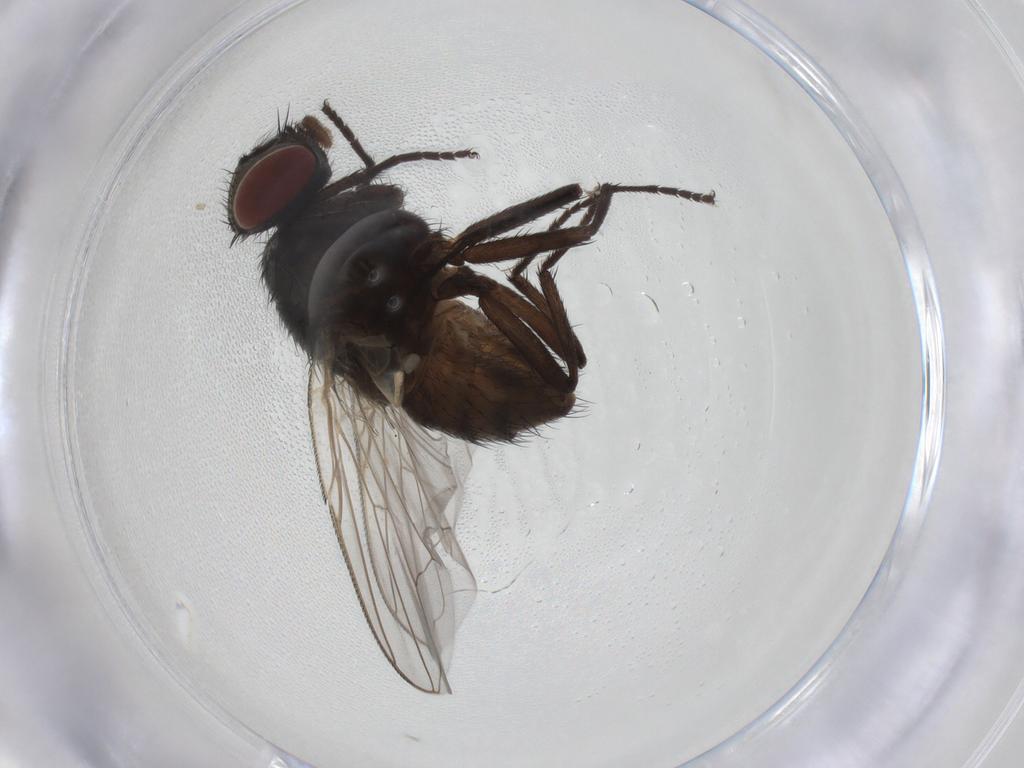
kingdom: Animalia
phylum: Arthropoda
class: Insecta
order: Diptera
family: Muscidae
